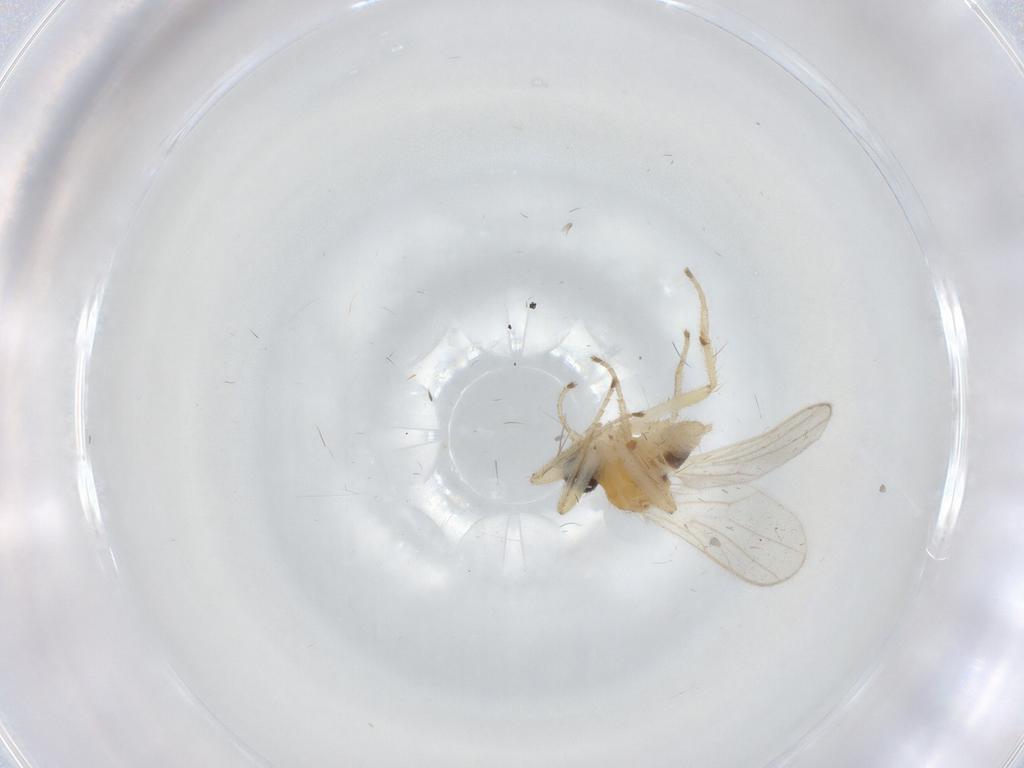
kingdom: Animalia
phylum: Arthropoda
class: Insecta
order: Diptera
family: Hybotidae
